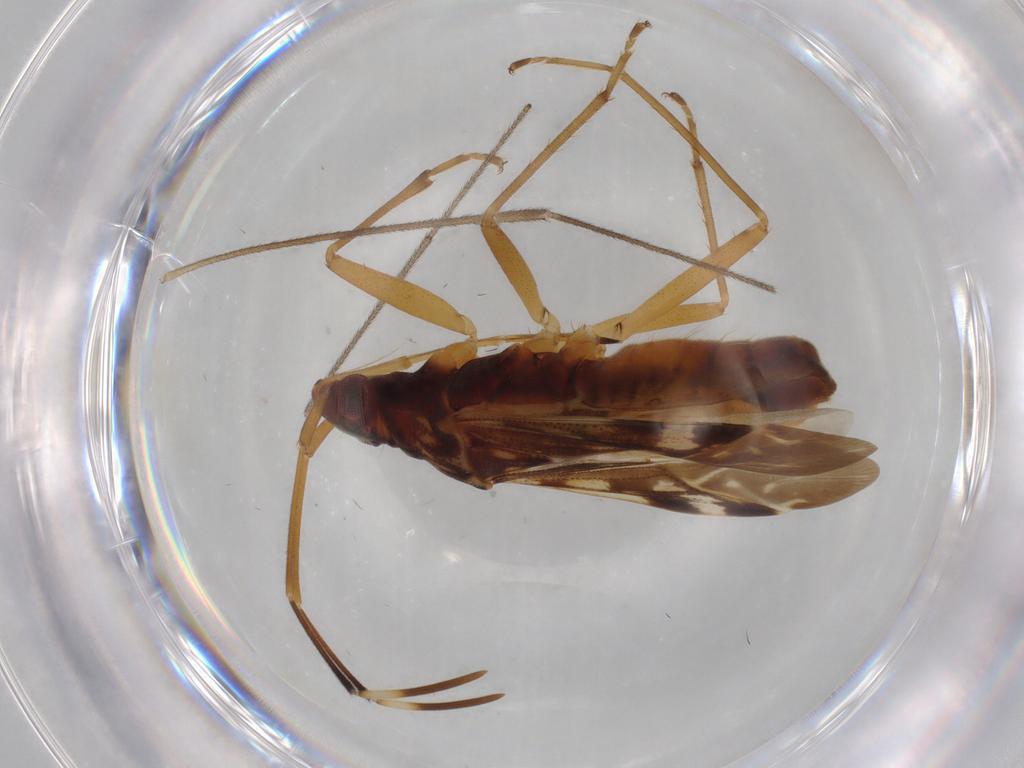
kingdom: Animalia
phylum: Arthropoda
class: Insecta
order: Hemiptera
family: Rhyparochromidae
